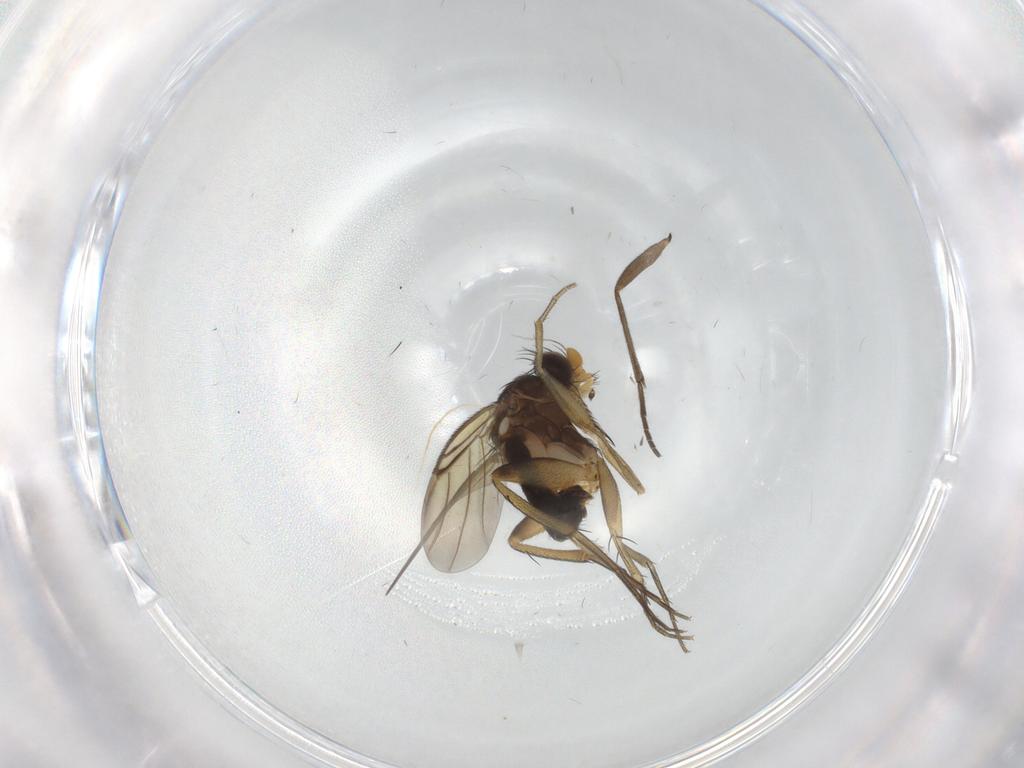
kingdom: Animalia
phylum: Arthropoda
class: Insecta
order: Diptera
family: Phoridae
